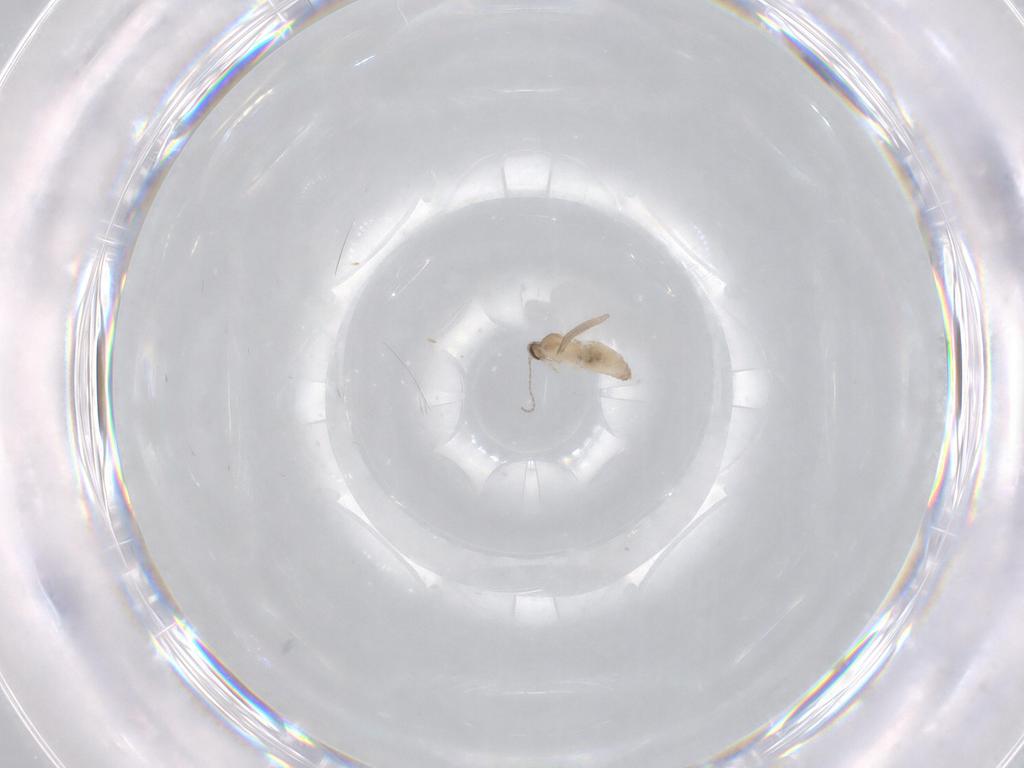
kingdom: Animalia
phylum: Arthropoda
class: Insecta
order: Diptera
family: Cecidomyiidae
